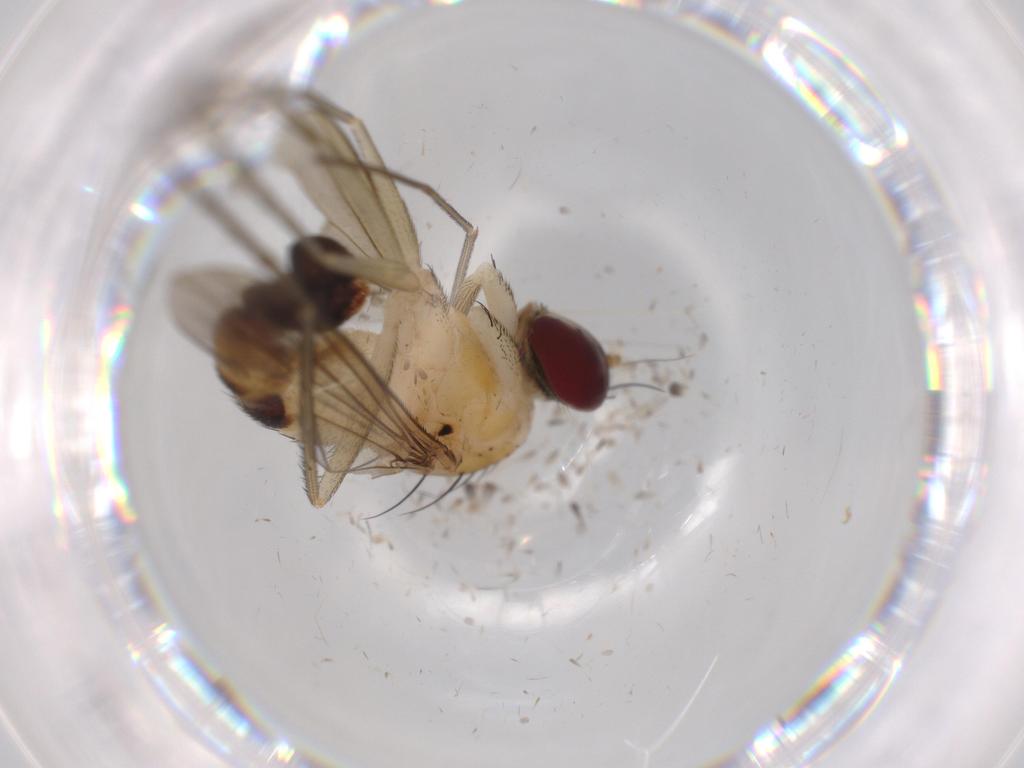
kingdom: Animalia
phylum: Arthropoda
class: Insecta
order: Diptera
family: Dolichopodidae
